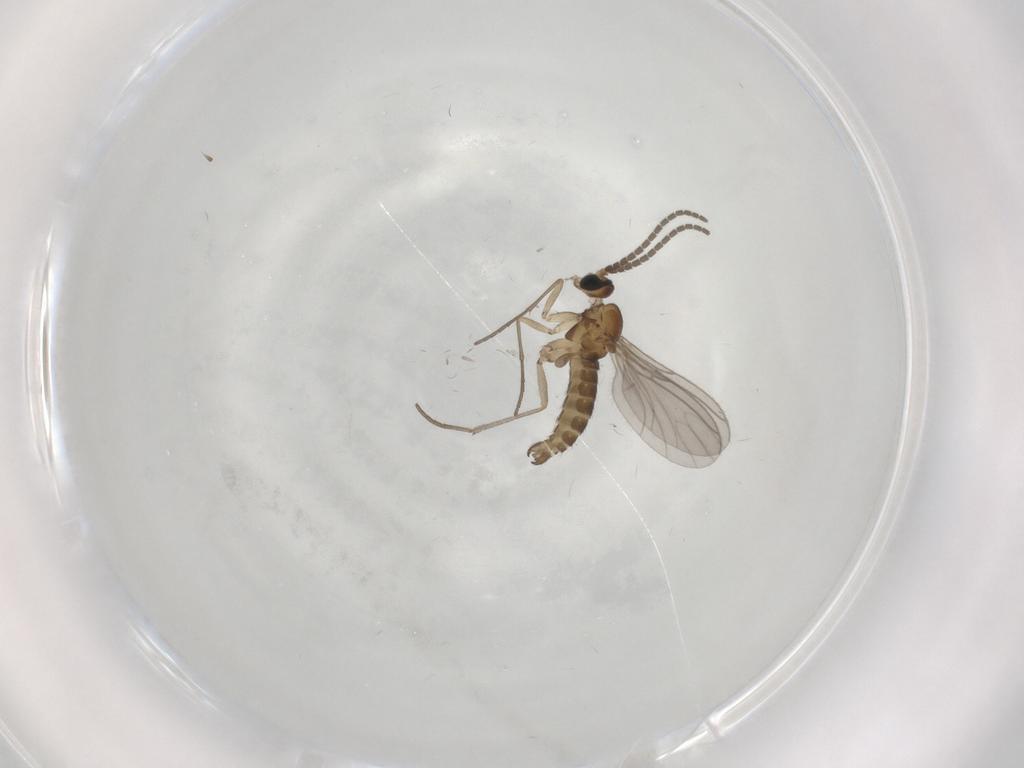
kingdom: Animalia
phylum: Arthropoda
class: Insecta
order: Diptera
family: Sciaridae
